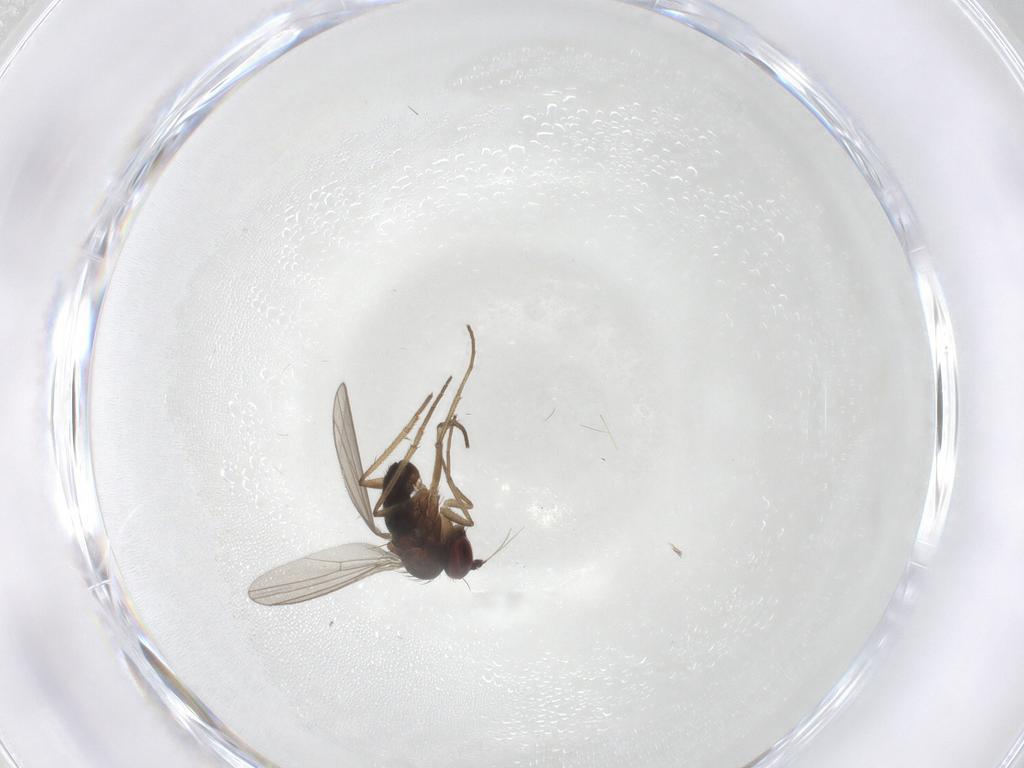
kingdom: Animalia
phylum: Arthropoda
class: Insecta
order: Diptera
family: Dolichopodidae
